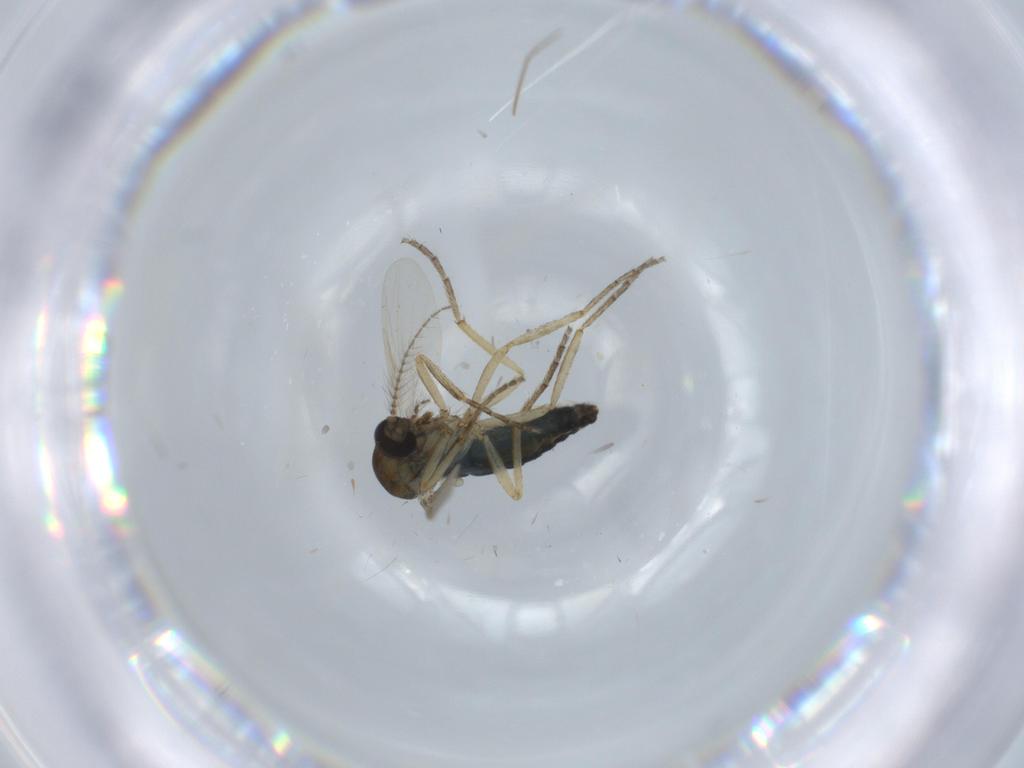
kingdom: Animalia
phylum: Arthropoda
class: Insecta
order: Diptera
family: Ceratopogonidae
